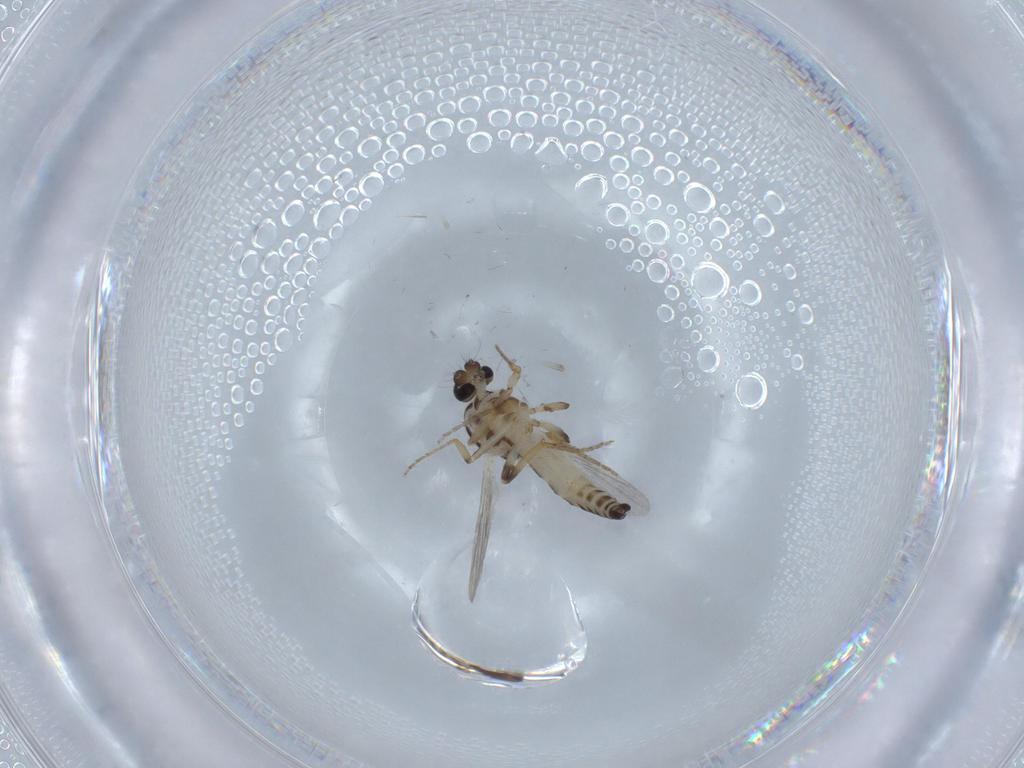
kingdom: Animalia
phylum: Arthropoda
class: Insecta
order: Diptera
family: Ceratopogonidae
